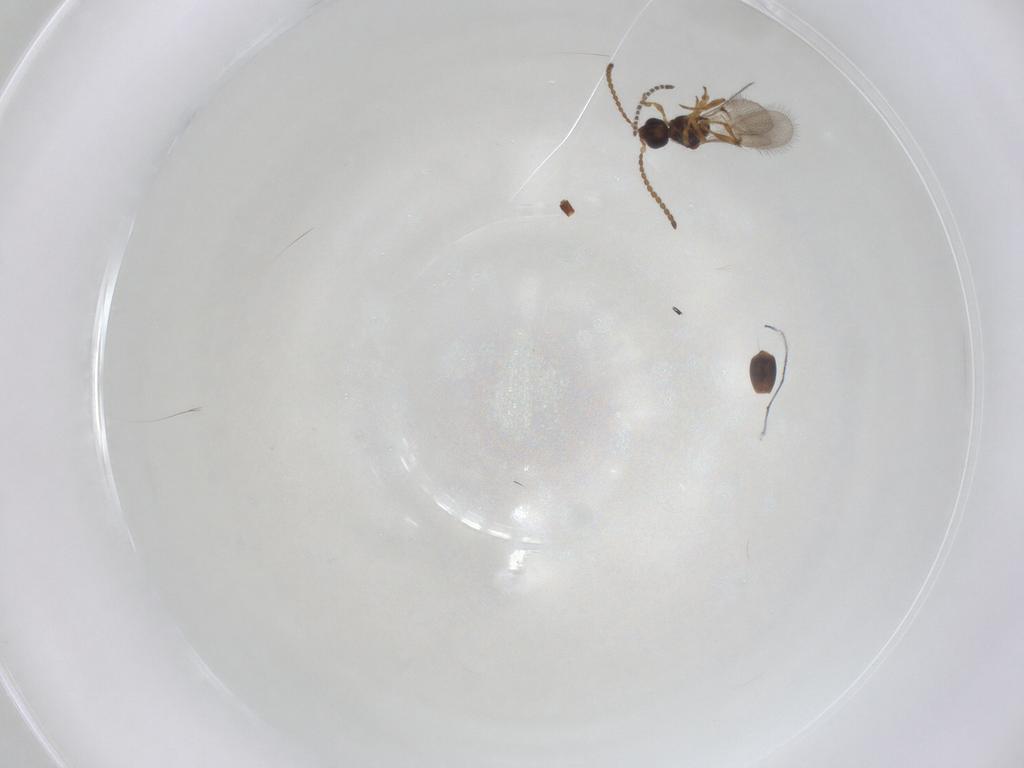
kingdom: Animalia
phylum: Arthropoda
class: Insecta
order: Hymenoptera
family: Diapriidae
